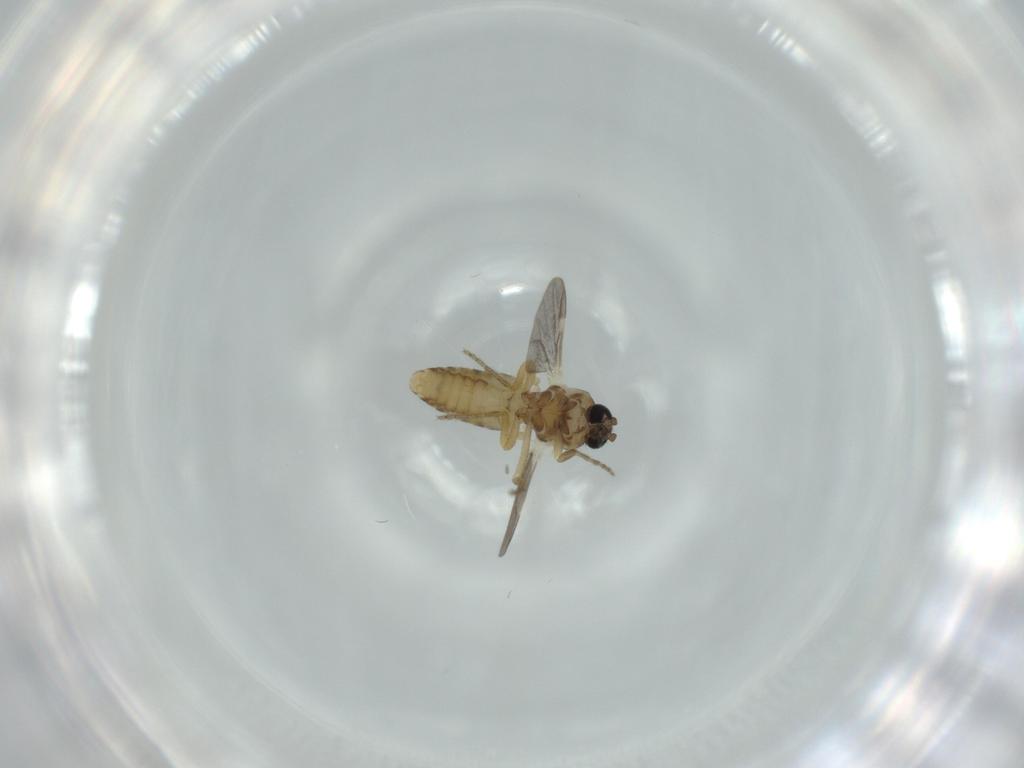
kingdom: Animalia
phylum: Arthropoda
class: Insecta
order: Diptera
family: Ceratopogonidae
